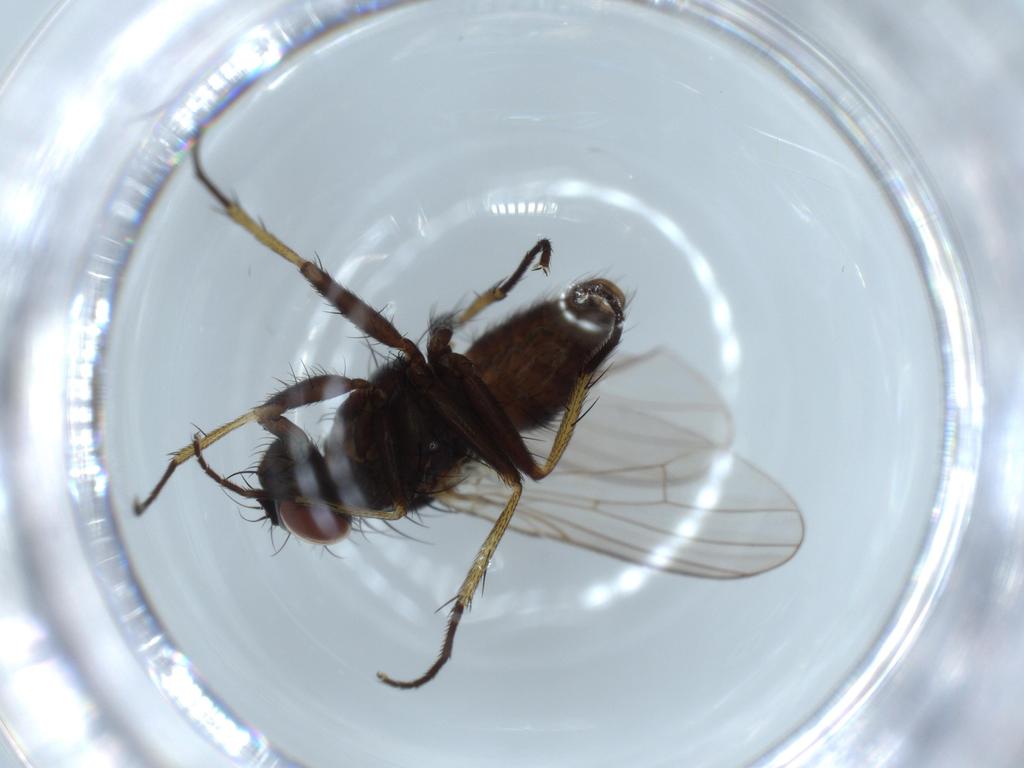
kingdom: Animalia
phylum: Arthropoda
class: Insecta
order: Diptera
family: Muscidae
